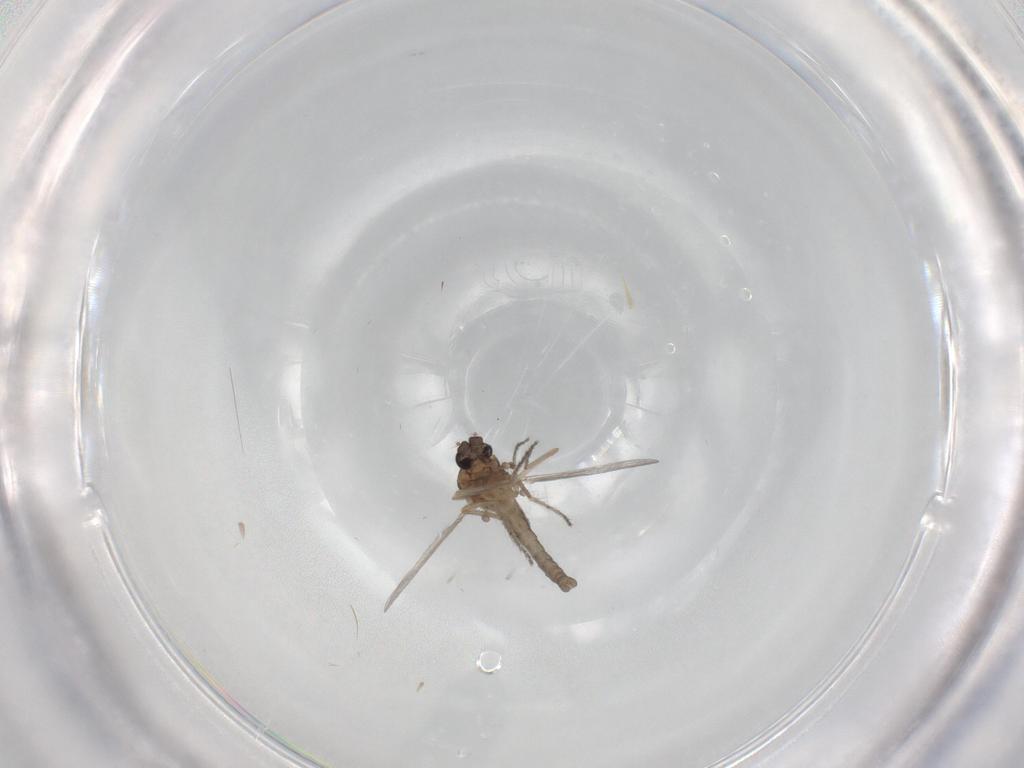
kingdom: Animalia
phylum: Arthropoda
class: Insecta
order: Diptera
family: Ceratopogonidae
